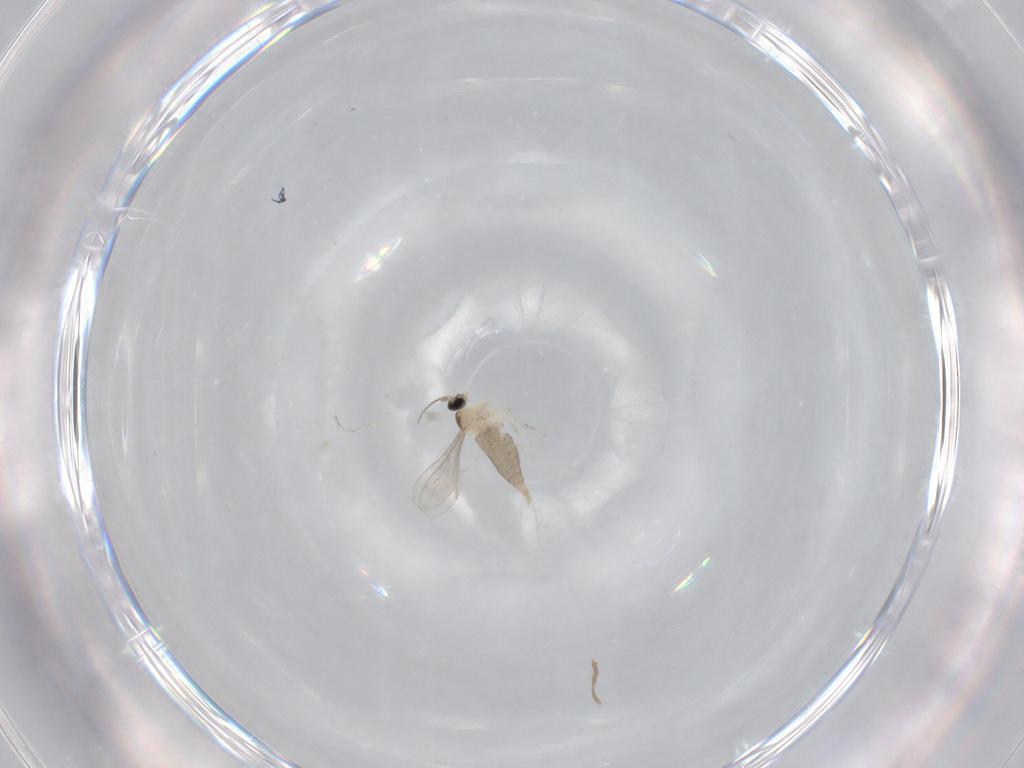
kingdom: Animalia
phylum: Arthropoda
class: Insecta
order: Diptera
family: Cecidomyiidae
